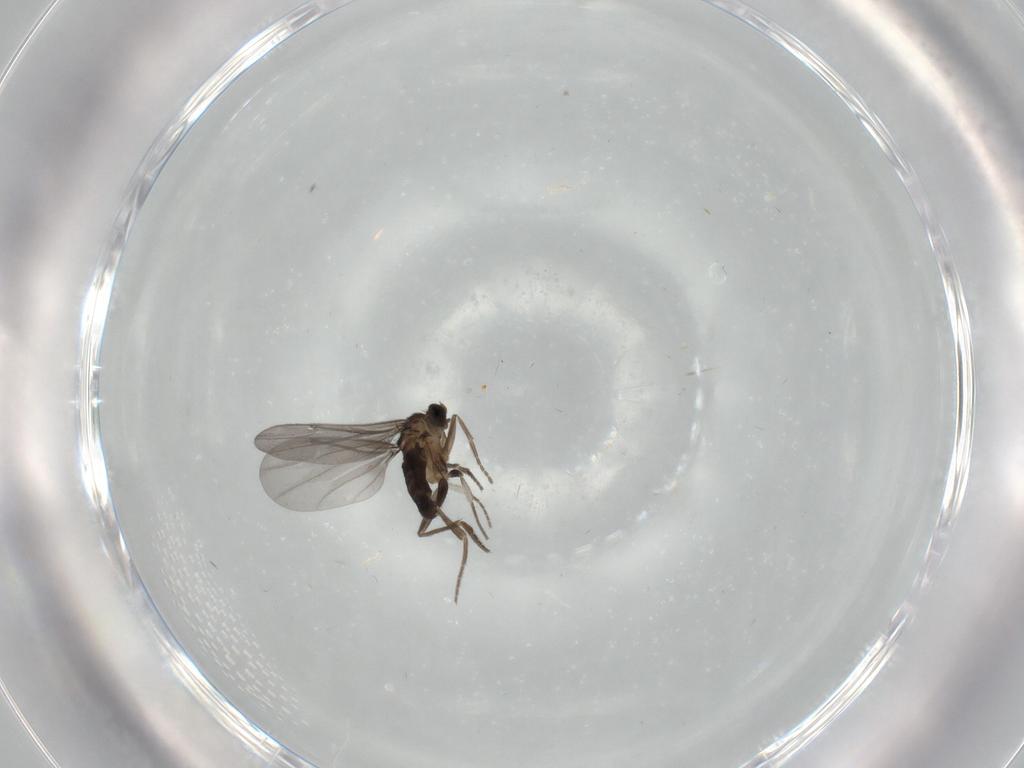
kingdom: Animalia
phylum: Arthropoda
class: Insecta
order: Diptera
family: Phoridae
